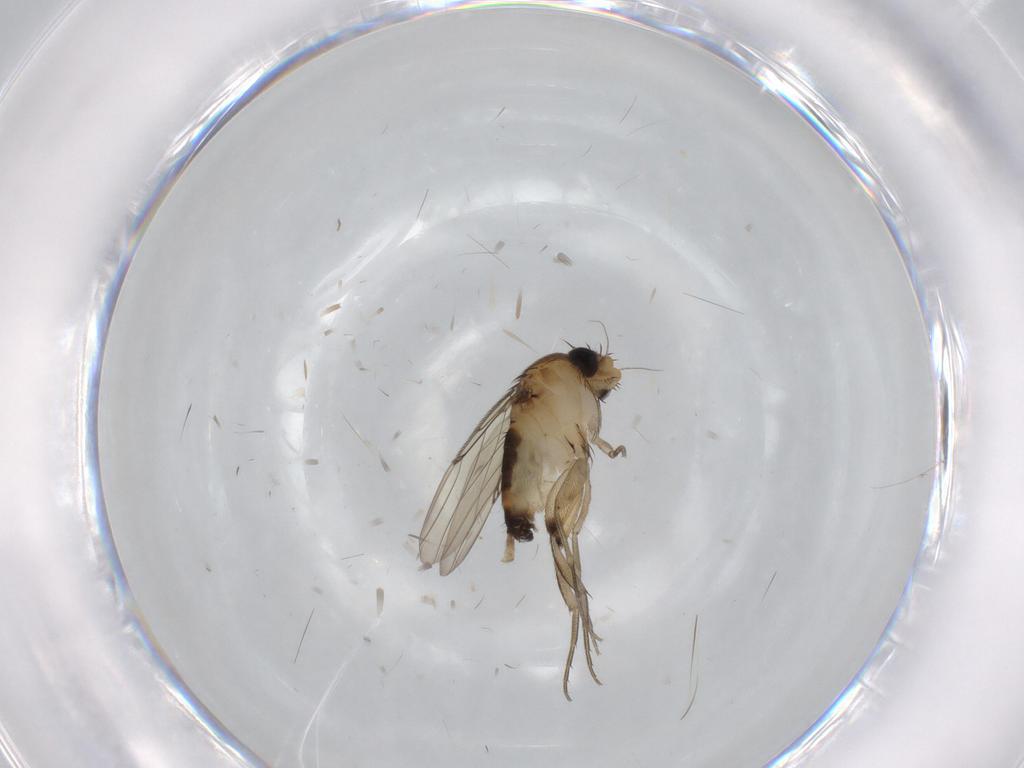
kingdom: Animalia
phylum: Arthropoda
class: Insecta
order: Diptera
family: Phoridae
